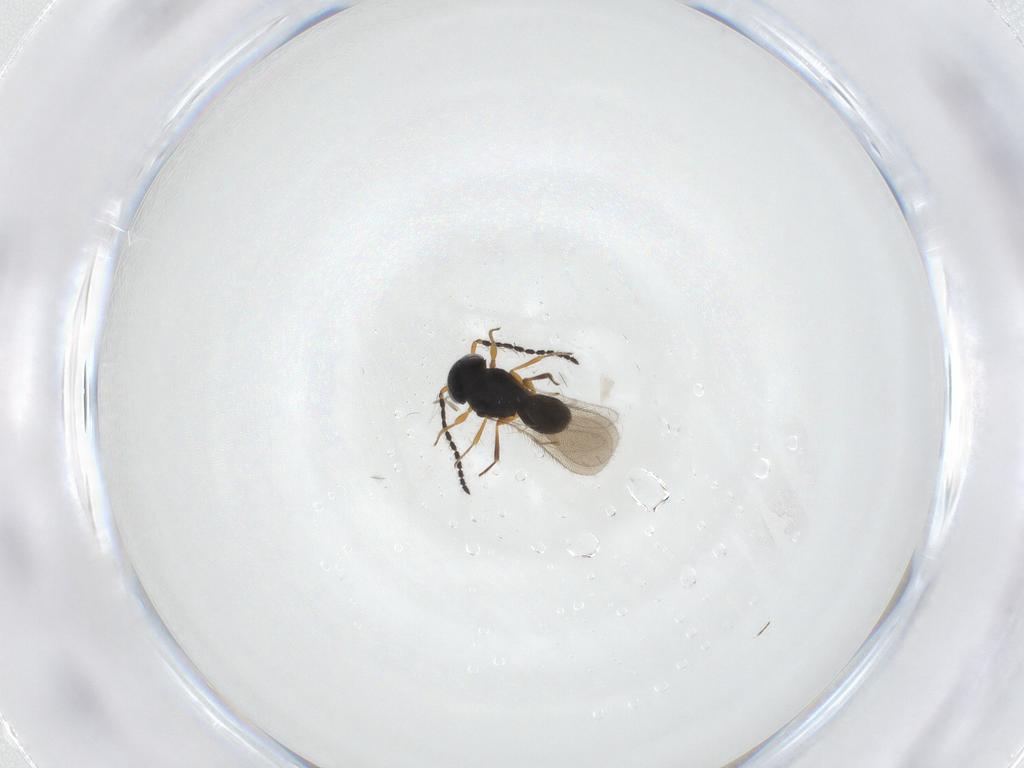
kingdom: Animalia
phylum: Arthropoda
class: Insecta
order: Hymenoptera
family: Scelionidae
